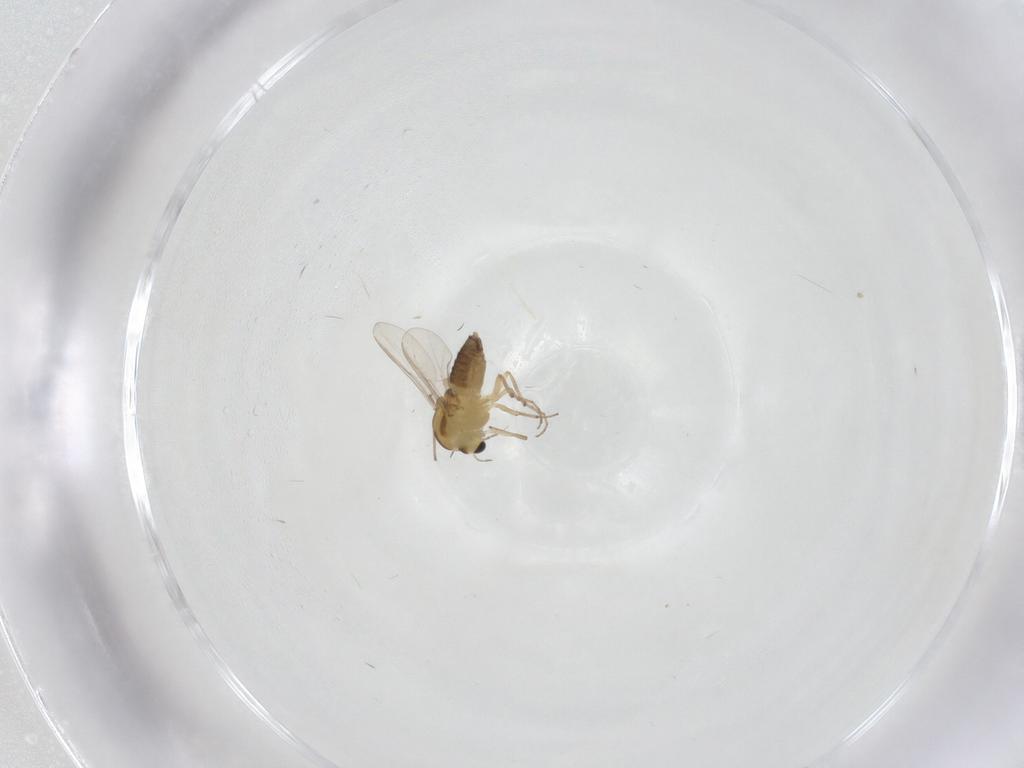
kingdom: Animalia
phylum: Arthropoda
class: Insecta
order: Diptera
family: Chironomidae
